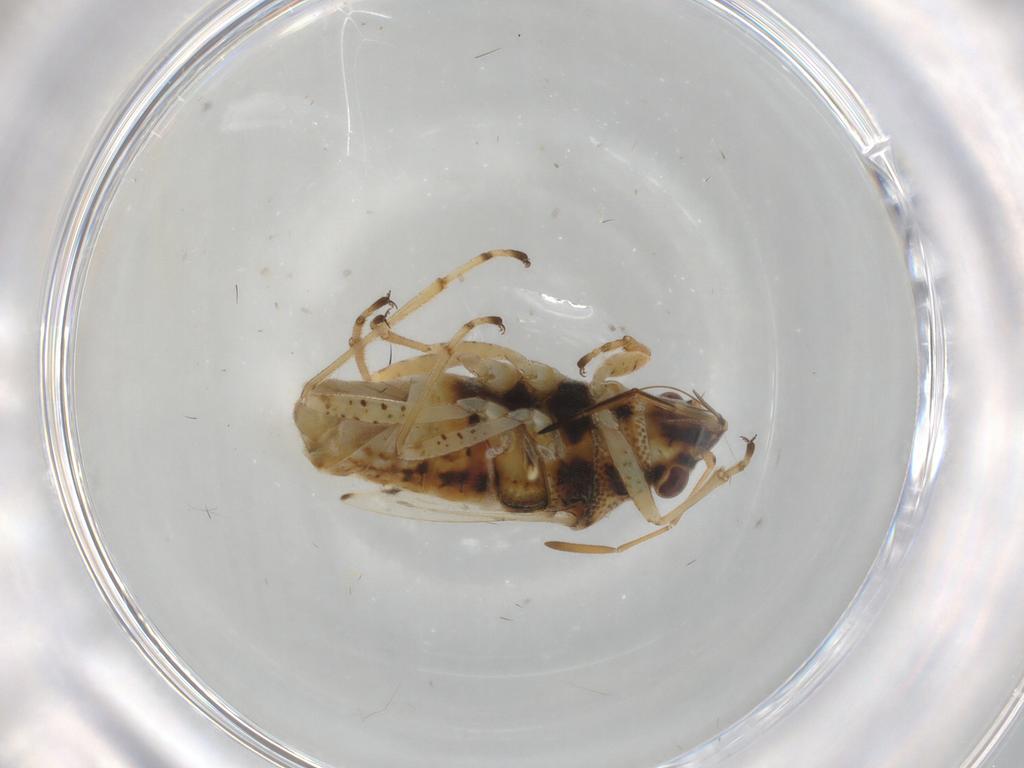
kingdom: Animalia
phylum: Arthropoda
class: Insecta
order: Hemiptera
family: Lygaeidae
